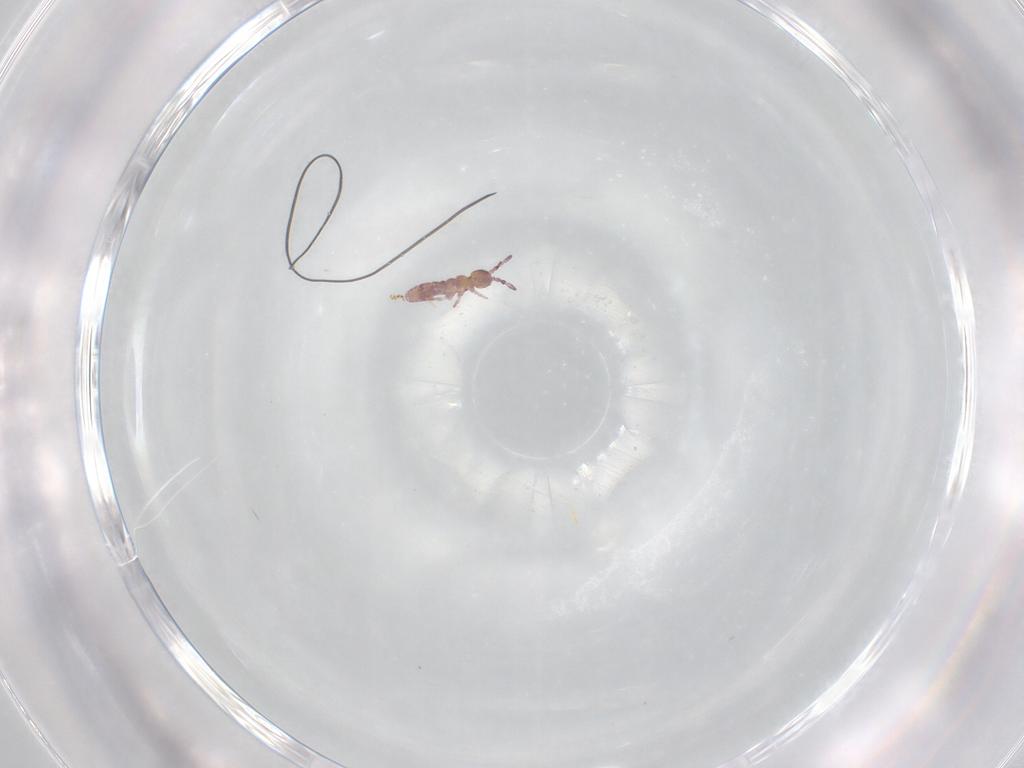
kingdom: Animalia
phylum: Arthropoda
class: Collembola
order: Entomobryomorpha
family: Isotomidae
